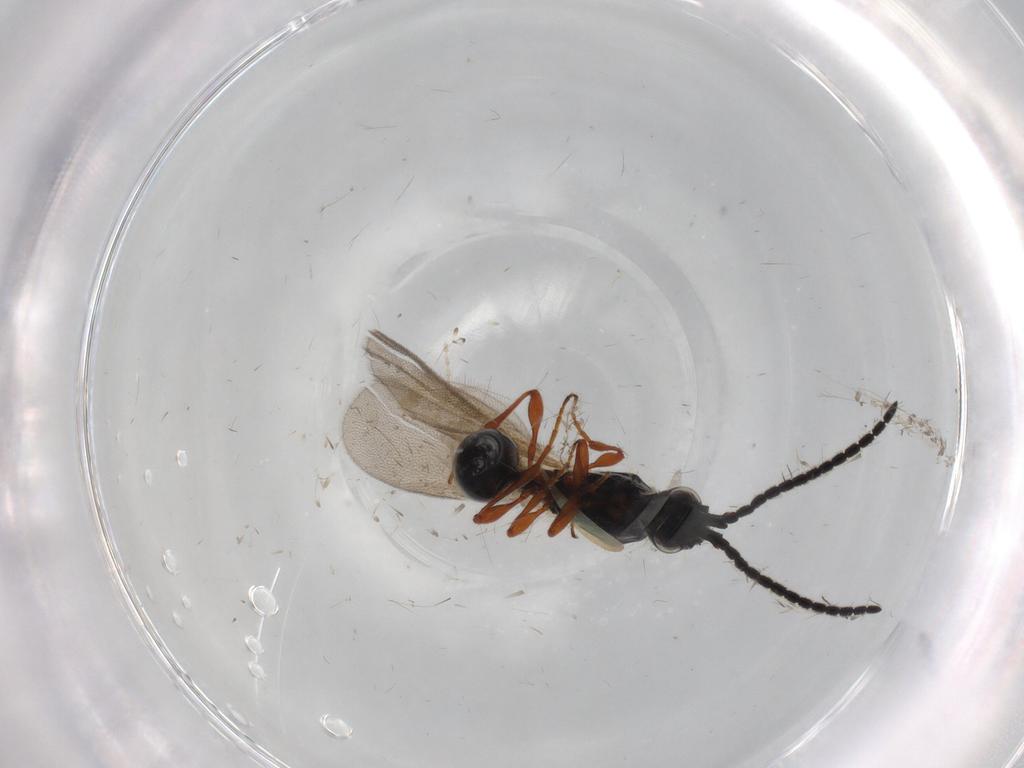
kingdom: Animalia
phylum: Arthropoda
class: Insecta
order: Hymenoptera
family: Diapriidae
